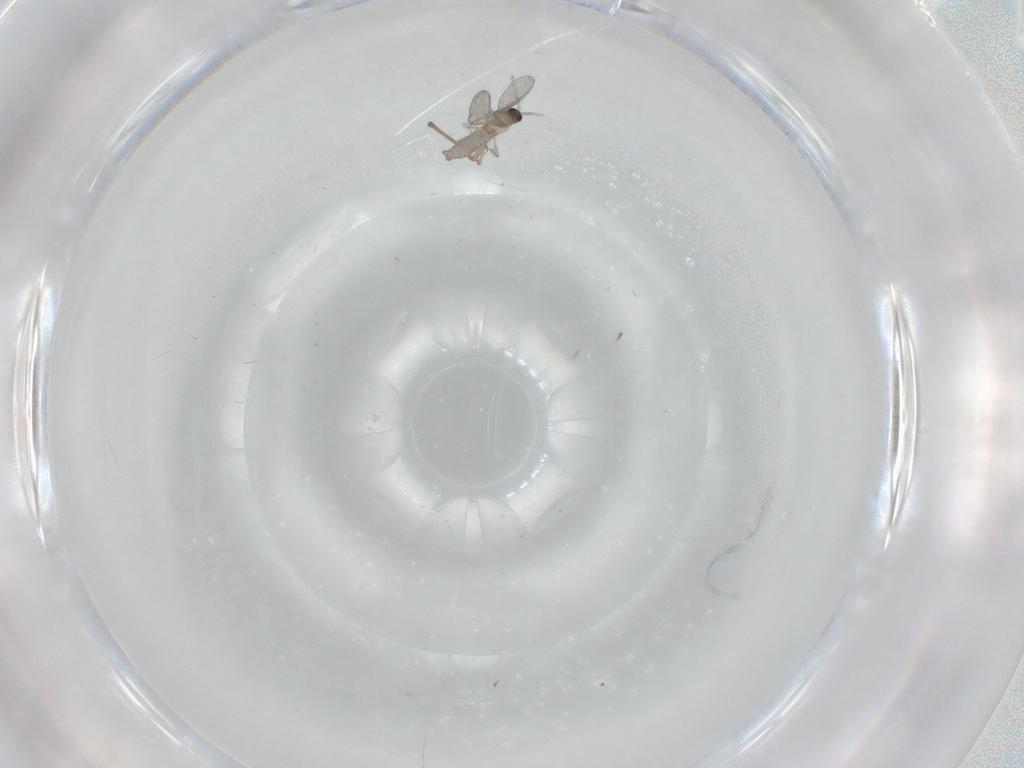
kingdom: Animalia
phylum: Arthropoda
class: Insecta
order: Diptera
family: Cecidomyiidae
